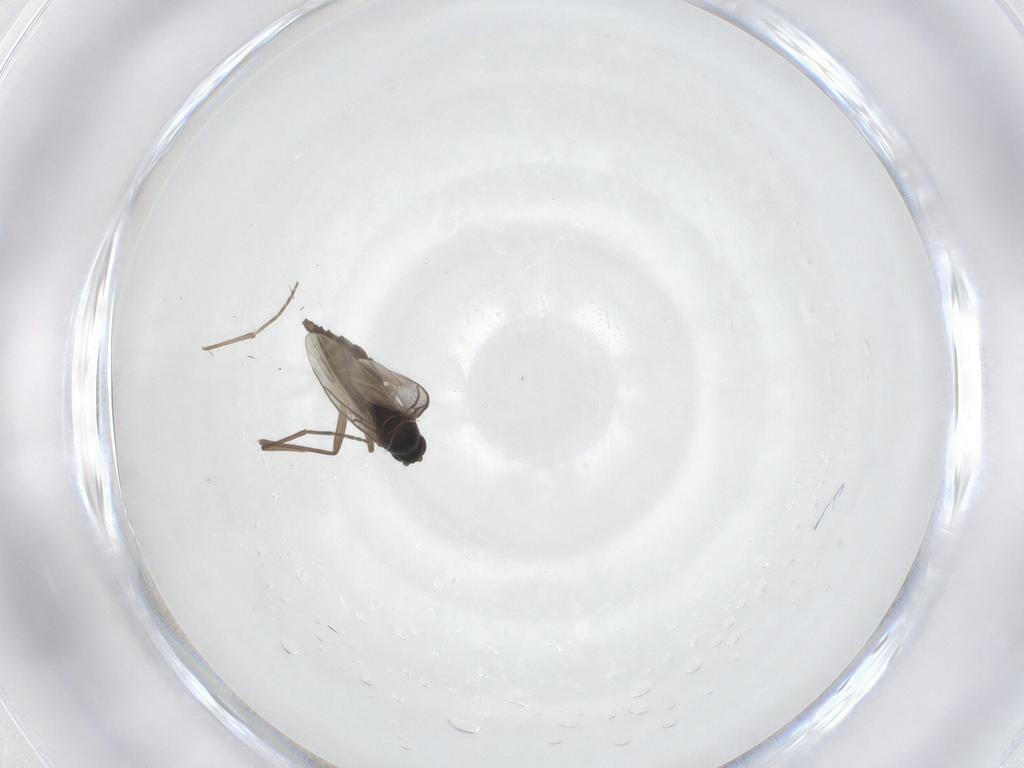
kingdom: Animalia
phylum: Arthropoda
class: Insecta
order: Diptera
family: Sciaridae
